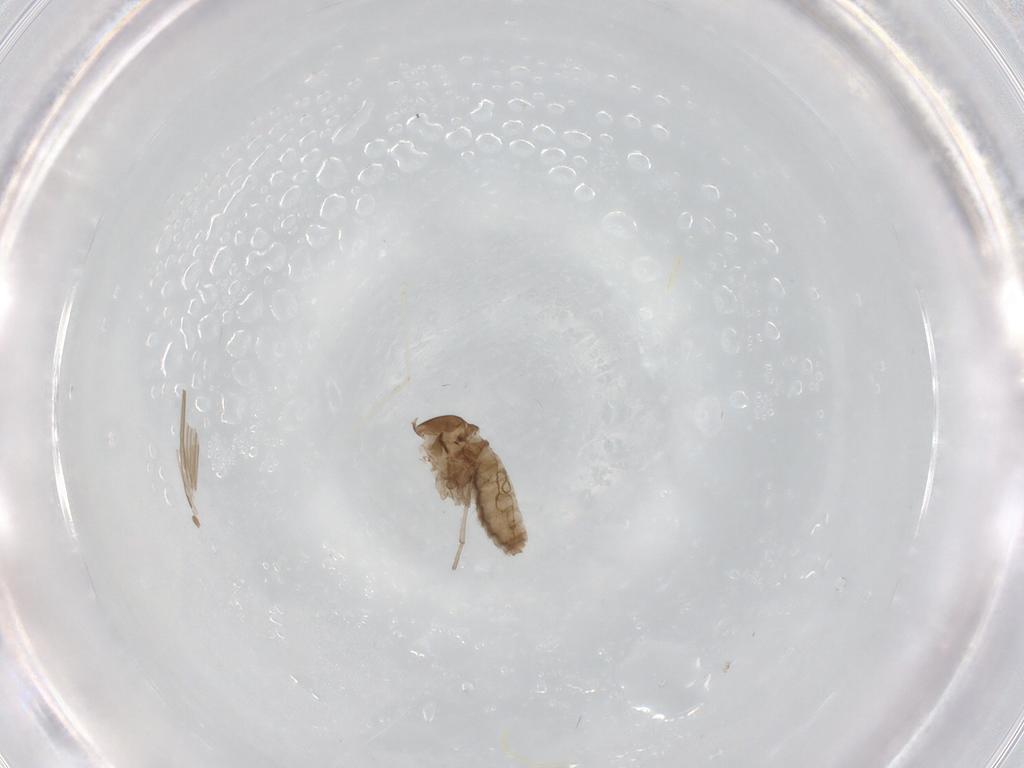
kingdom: Animalia
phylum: Arthropoda
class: Insecta
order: Diptera
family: Psychodidae
